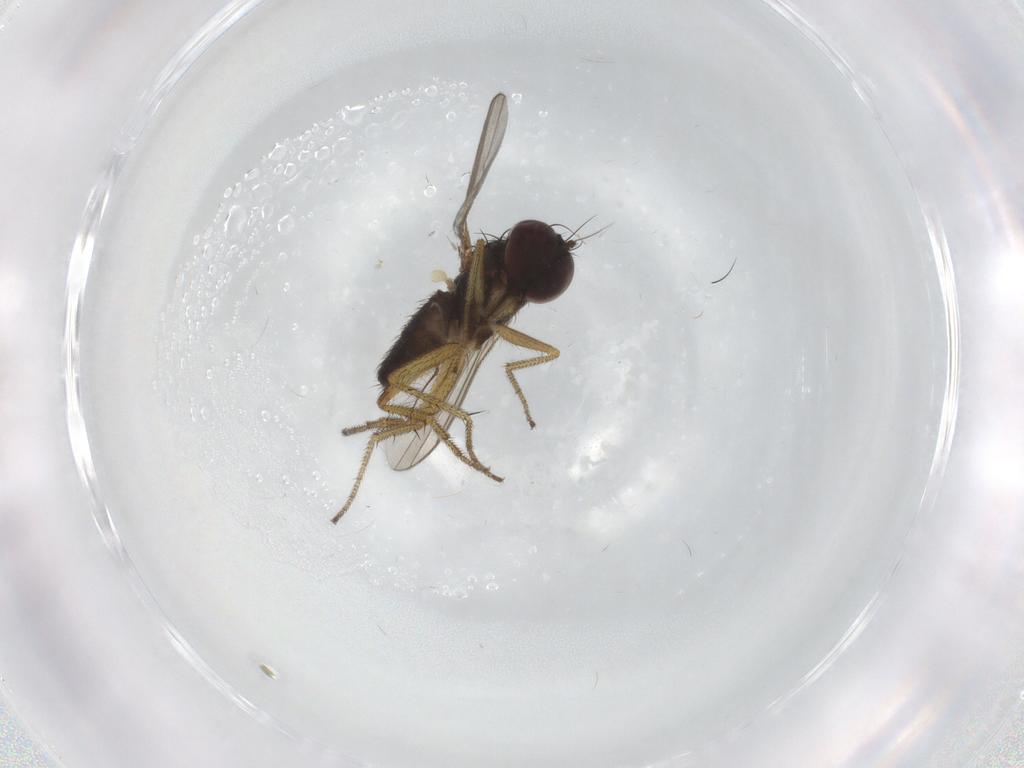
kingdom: Animalia
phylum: Arthropoda
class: Insecta
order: Diptera
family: Dolichopodidae
